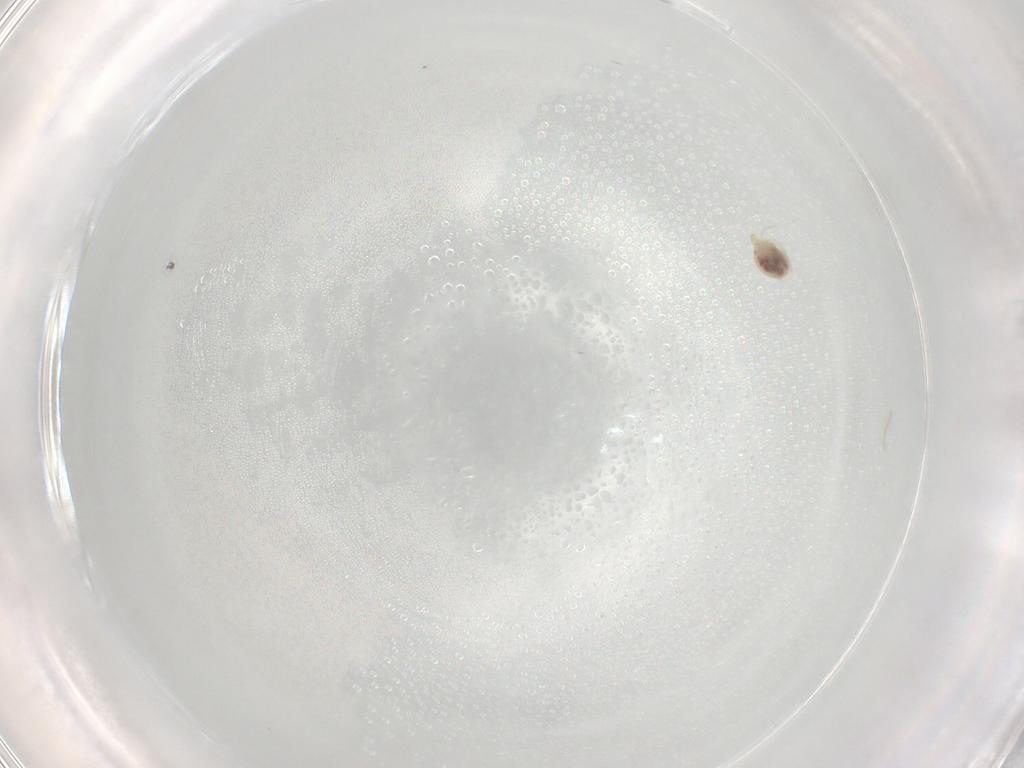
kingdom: Animalia
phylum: Arthropoda
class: Arachnida
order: Trombidiformes
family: Hygrobatidae
